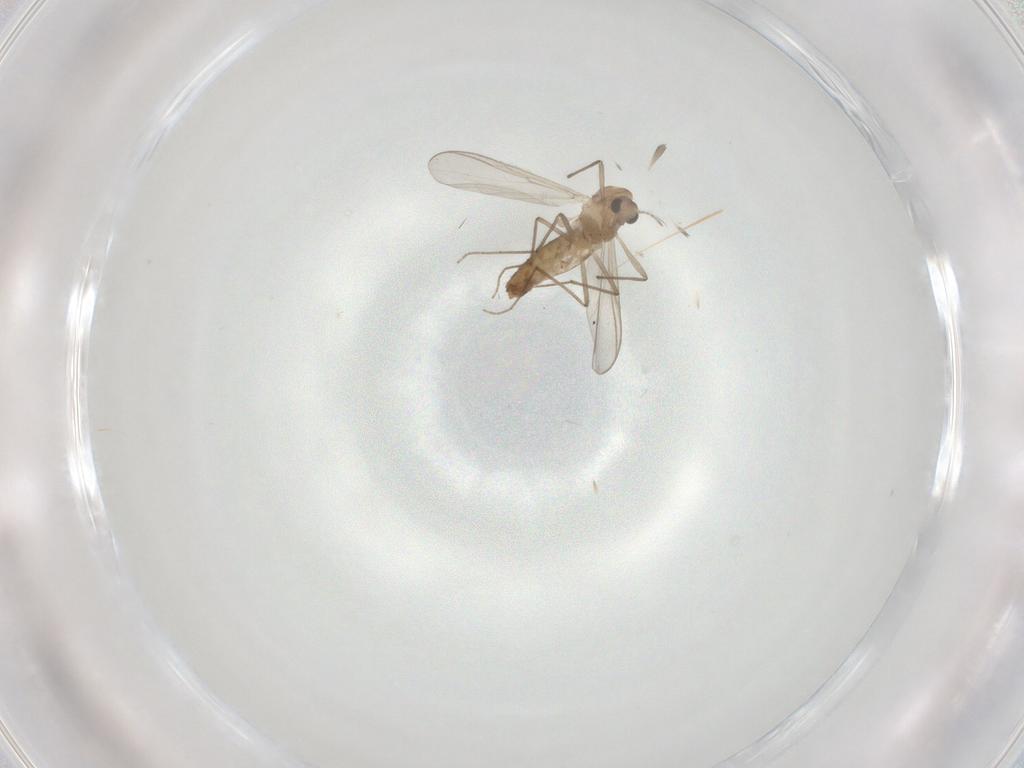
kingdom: Animalia
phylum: Arthropoda
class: Insecta
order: Diptera
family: Chironomidae
